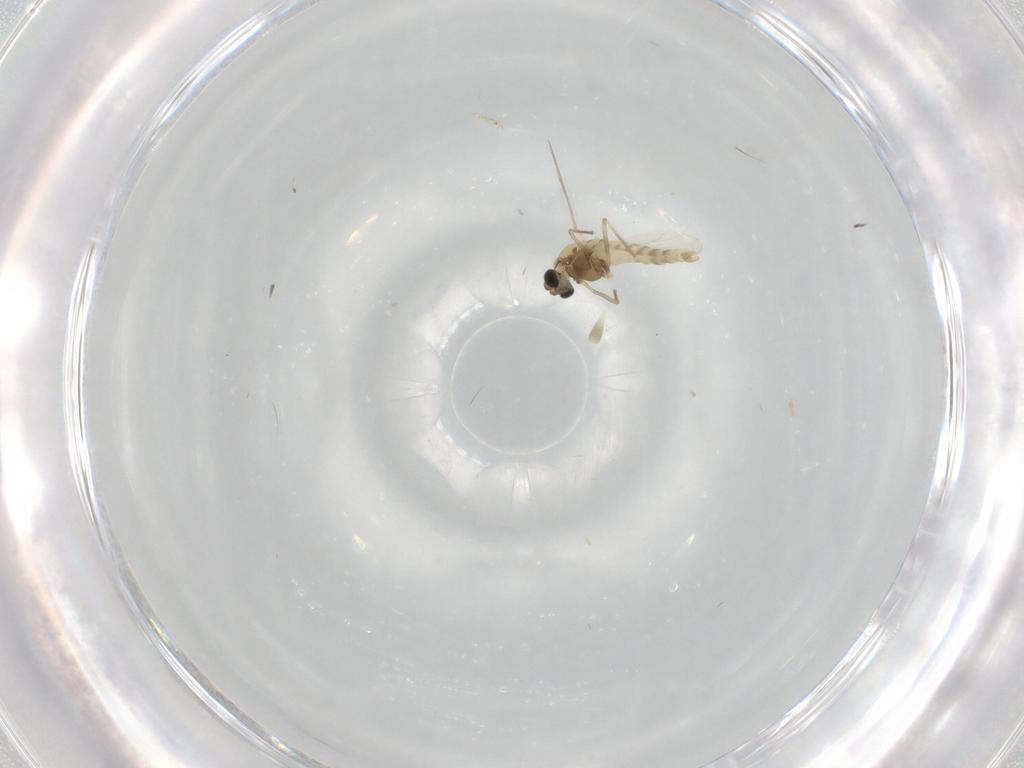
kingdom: Animalia
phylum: Arthropoda
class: Insecta
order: Diptera
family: Chironomidae
